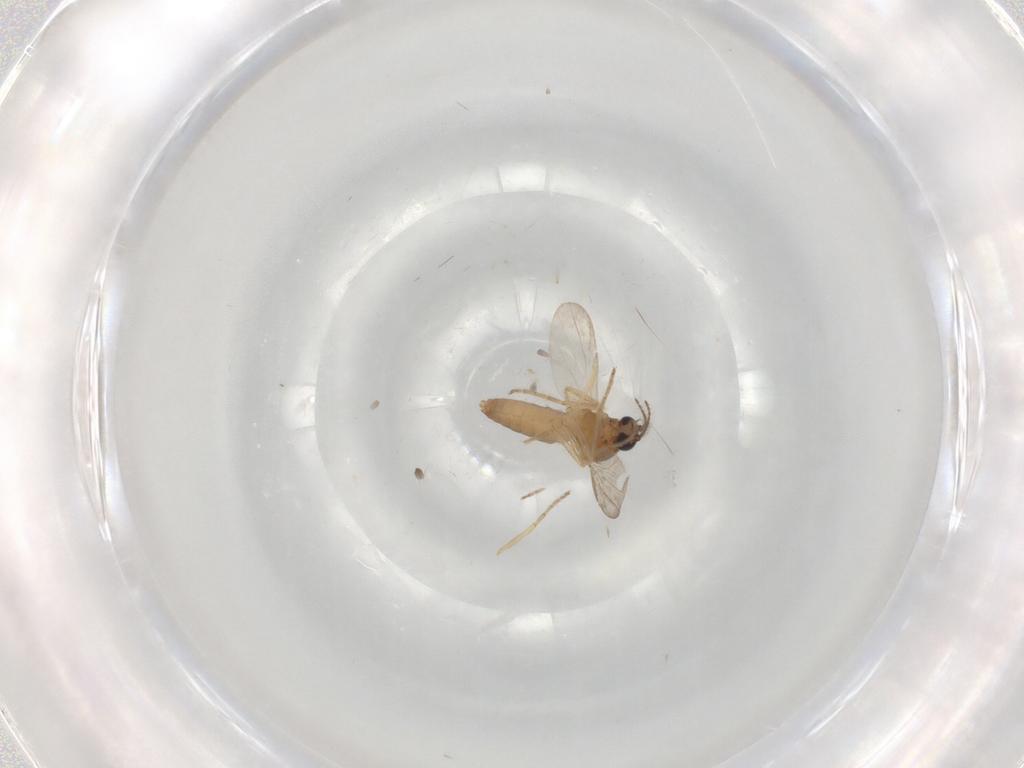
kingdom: Animalia
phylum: Arthropoda
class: Insecta
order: Diptera
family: Ceratopogonidae
